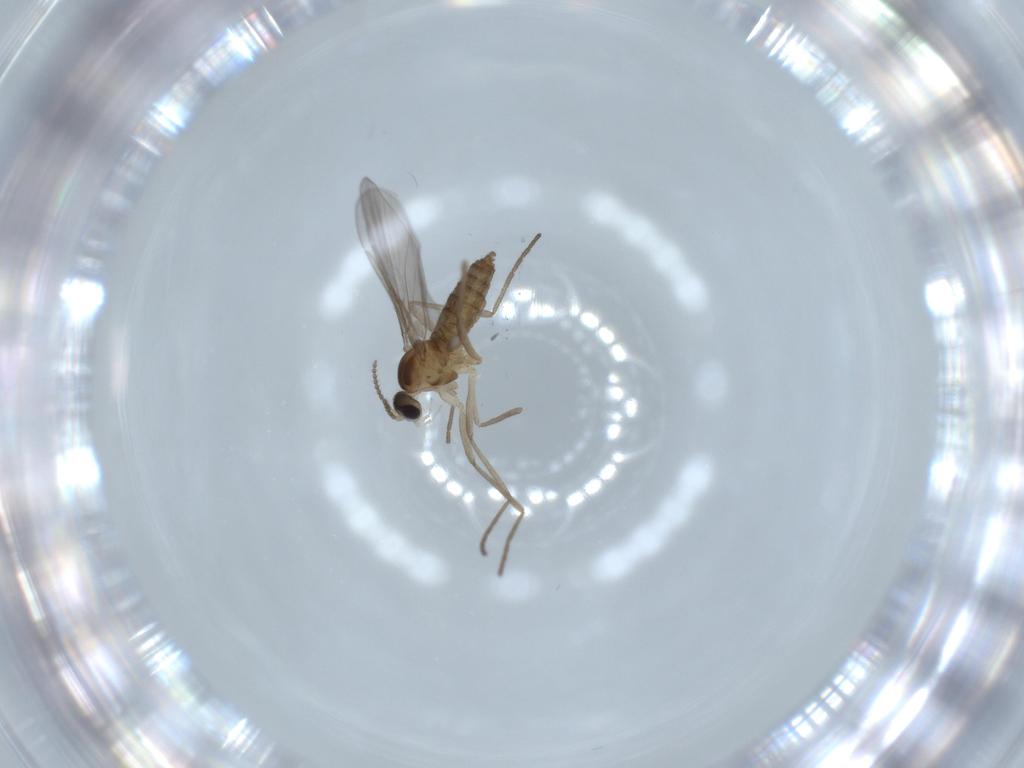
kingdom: Animalia
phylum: Arthropoda
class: Insecta
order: Diptera
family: Cecidomyiidae
